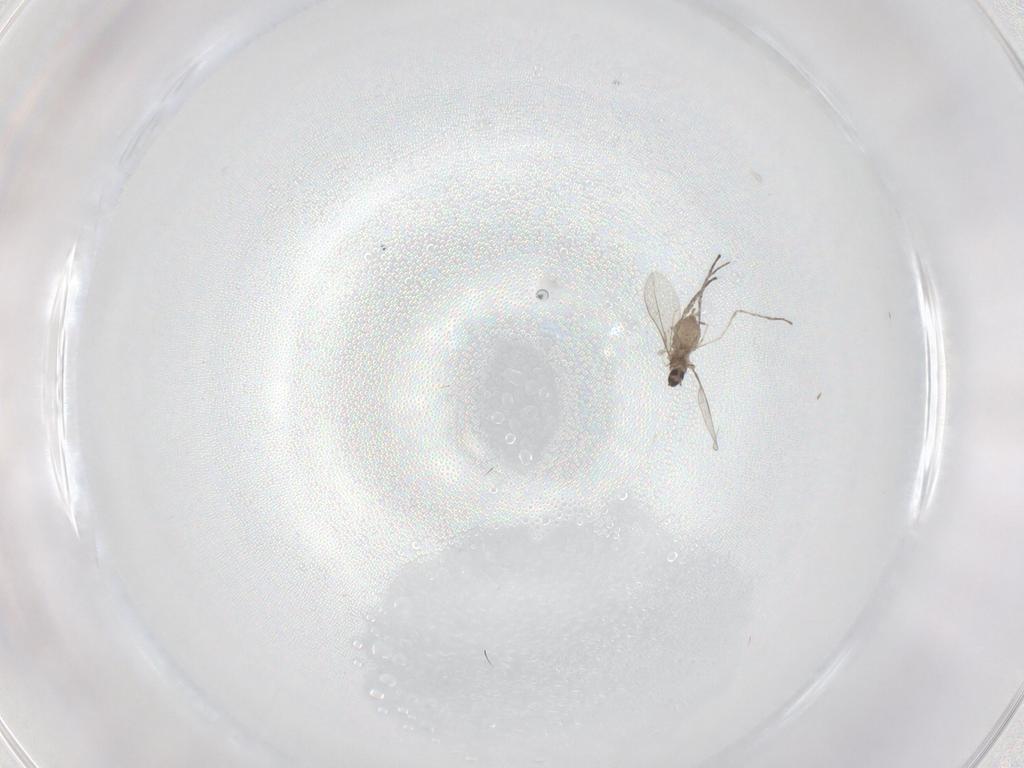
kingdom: Animalia
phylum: Arthropoda
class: Insecta
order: Diptera
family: Cecidomyiidae
